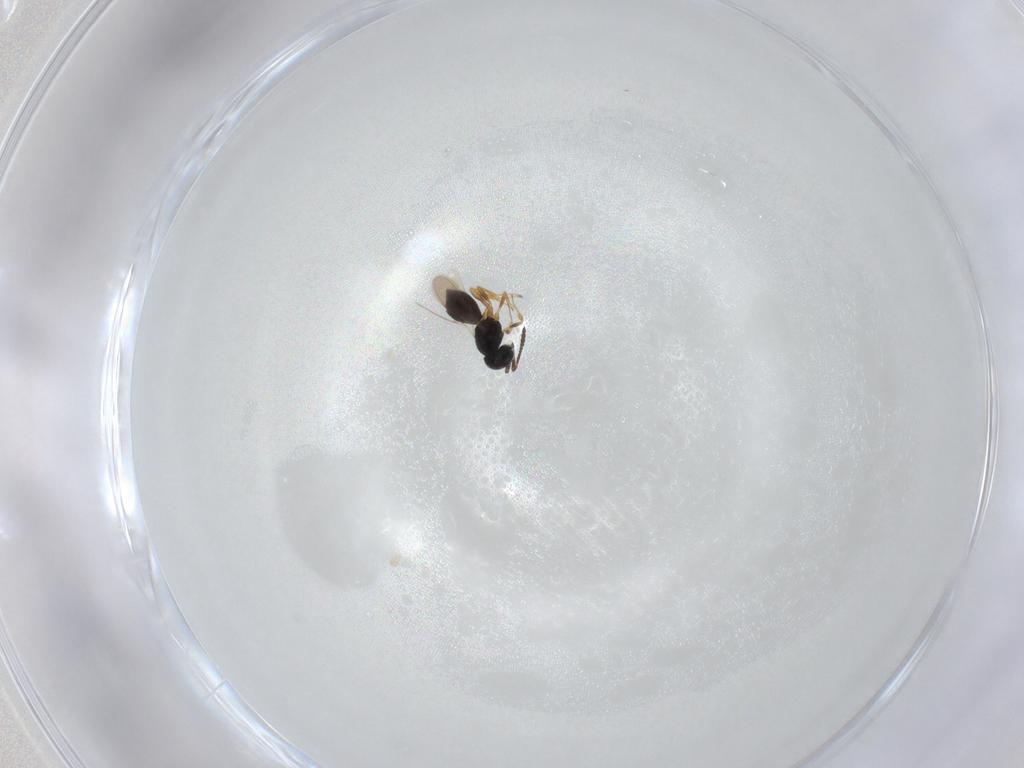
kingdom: Animalia
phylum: Arthropoda
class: Insecta
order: Hymenoptera
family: Scelionidae
